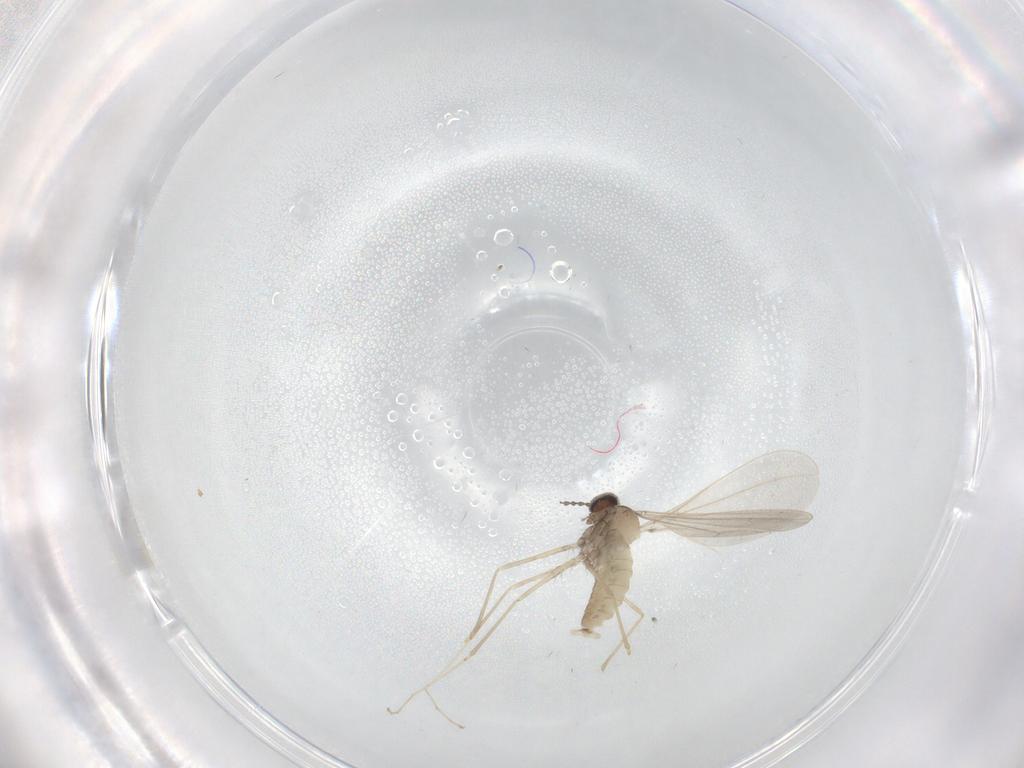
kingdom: Animalia
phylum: Arthropoda
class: Insecta
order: Diptera
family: Cecidomyiidae
